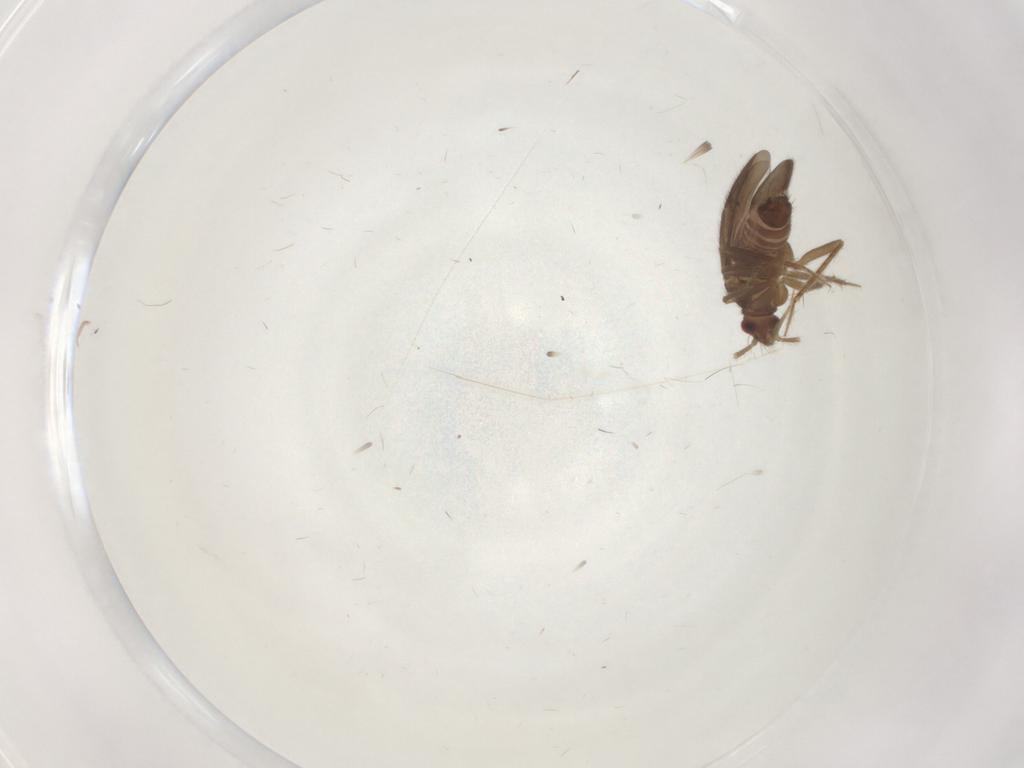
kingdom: Animalia
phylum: Arthropoda
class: Insecta
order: Hemiptera
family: Ceratocombidae
